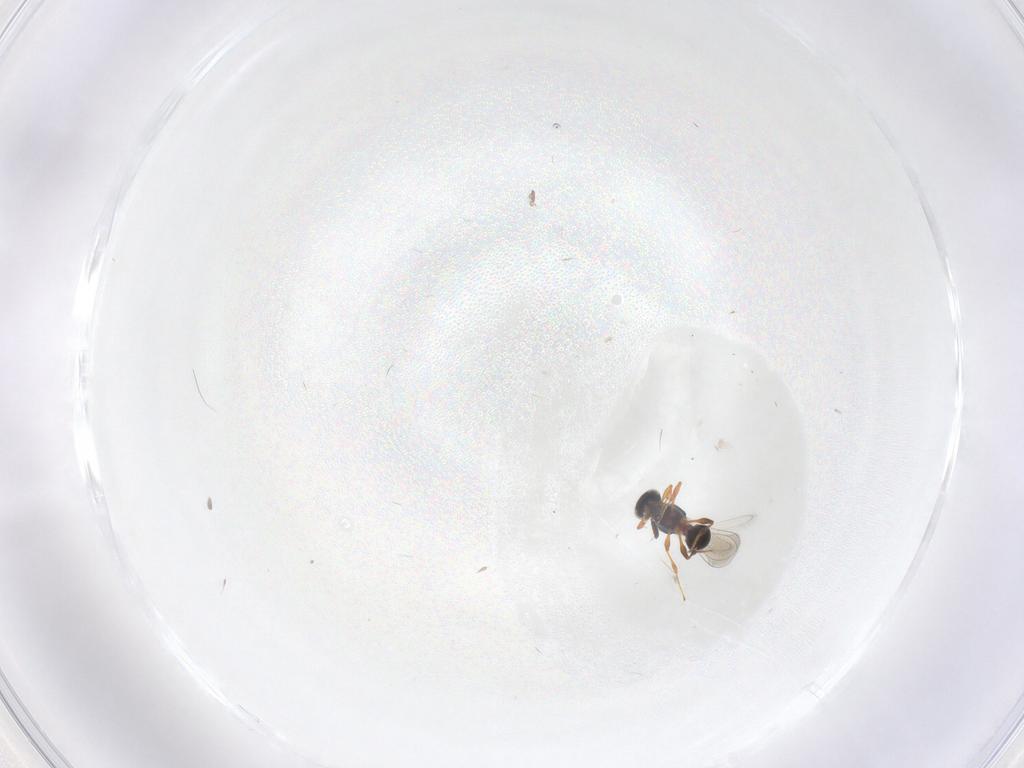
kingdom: Animalia
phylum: Arthropoda
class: Insecta
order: Hymenoptera
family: Platygastridae
